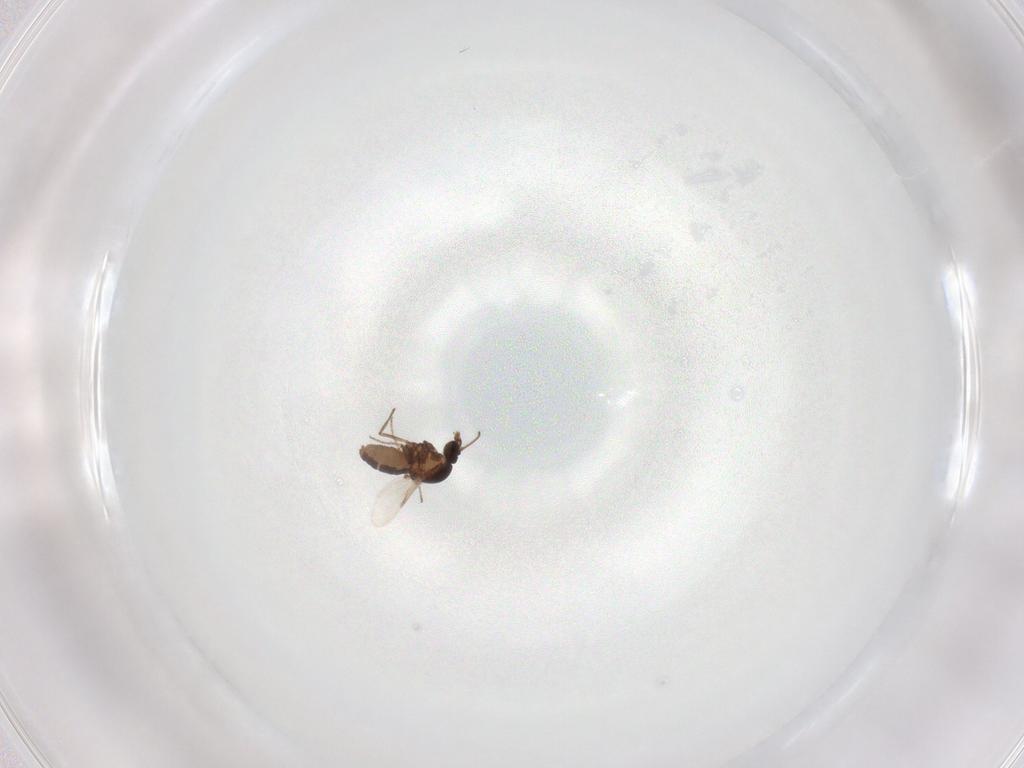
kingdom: Animalia
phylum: Arthropoda
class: Insecta
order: Diptera
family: Ceratopogonidae
